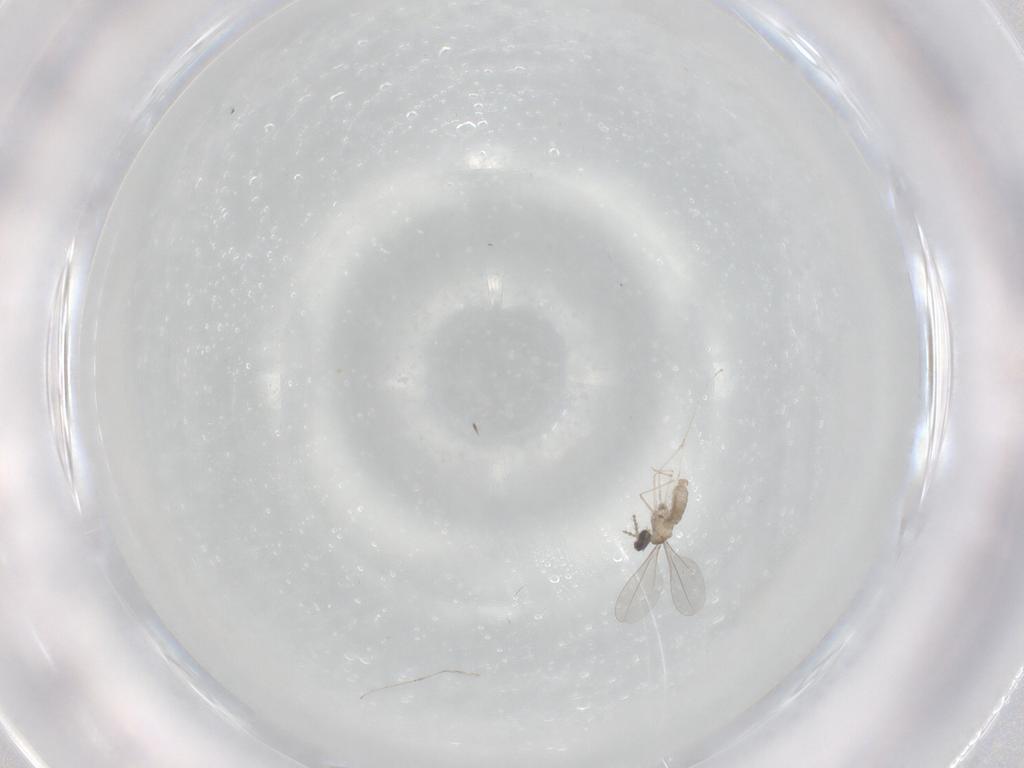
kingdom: Animalia
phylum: Arthropoda
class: Insecta
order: Diptera
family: Cecidomyiidae
